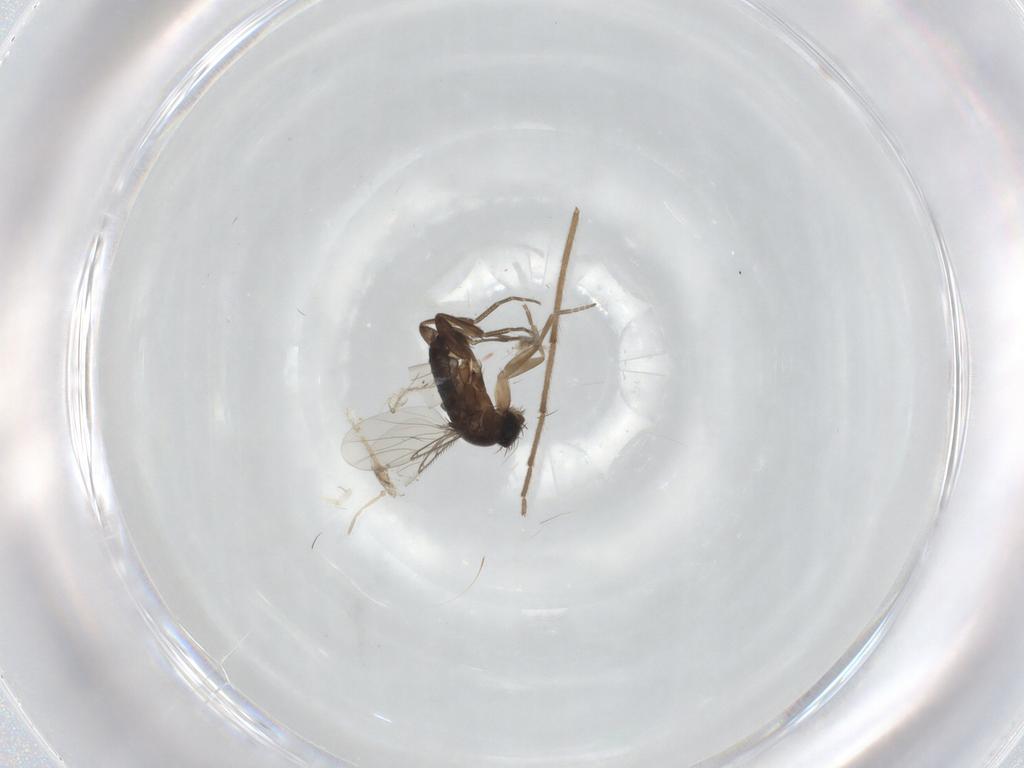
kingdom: Animalia
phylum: Arthropoda
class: Insecta
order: Diptera
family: Phoridae
